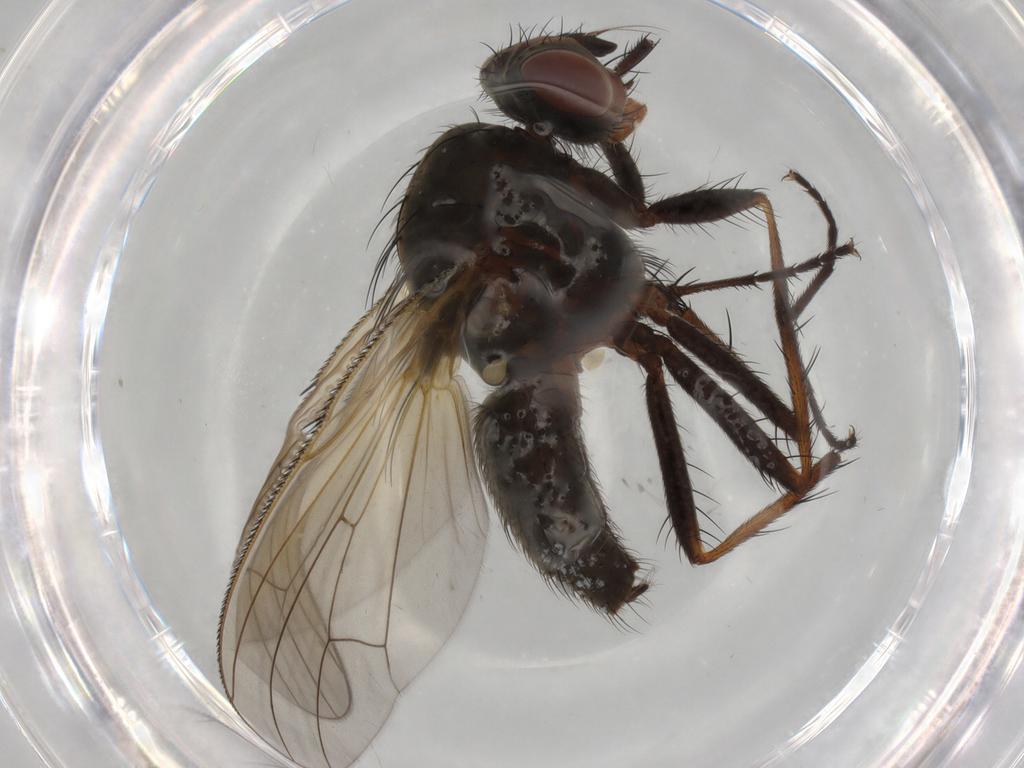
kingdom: Animalia
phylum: Arthropoda
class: Insecta
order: Diptera
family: Anthomyiidae
